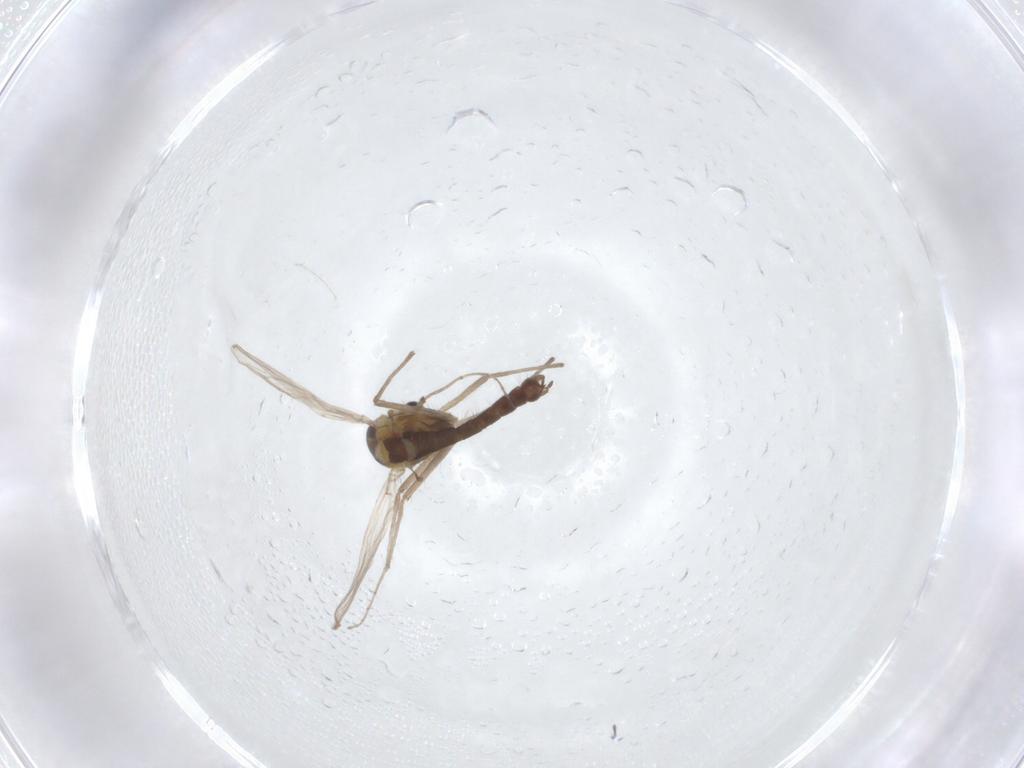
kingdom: Animalia
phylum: Arthropoda
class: Insecta
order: Diptera
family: Chironomidae
